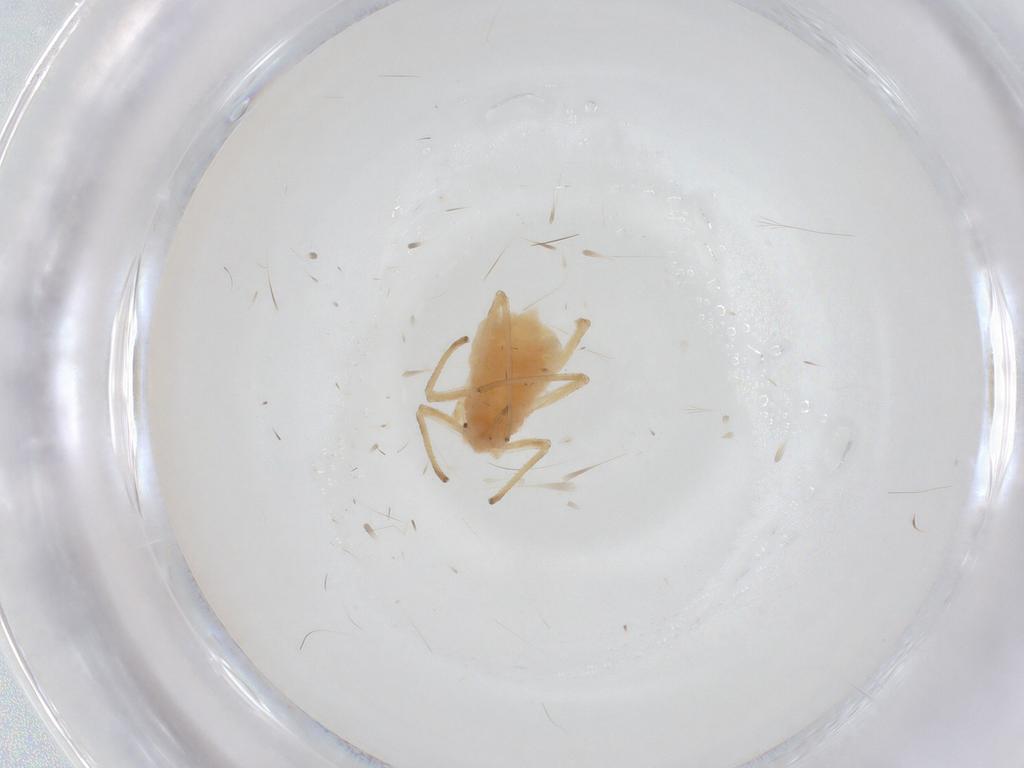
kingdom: Animalia
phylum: Arthropoda
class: Insecta
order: Hemiptera
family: Aphididae
